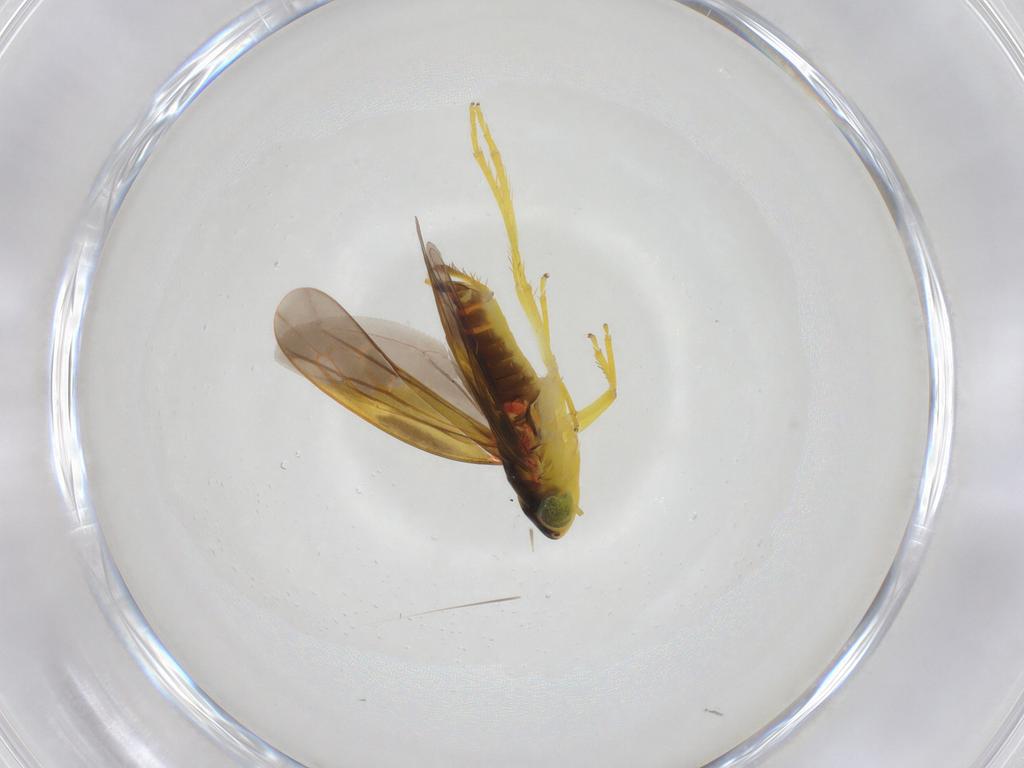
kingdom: Animalia
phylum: Arthropoda
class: Insecta
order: Hemiptera
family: Cicadellidae
